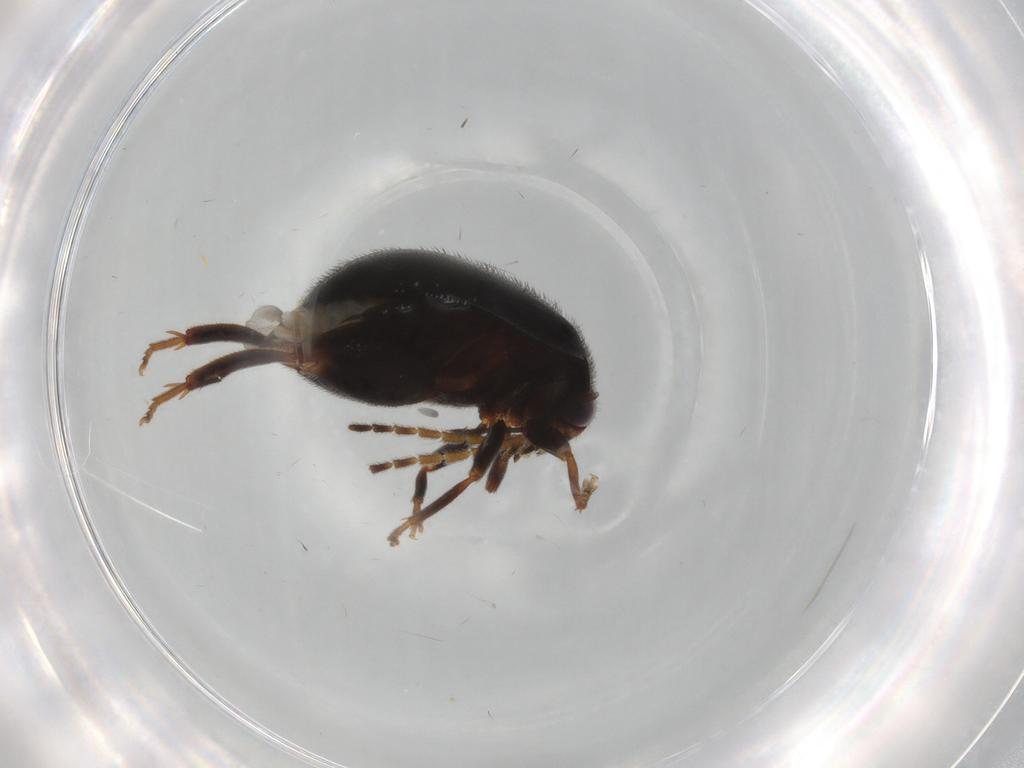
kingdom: Animalia
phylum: Arthropoda
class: Insecta
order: Coleoptera
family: Scirtidae
